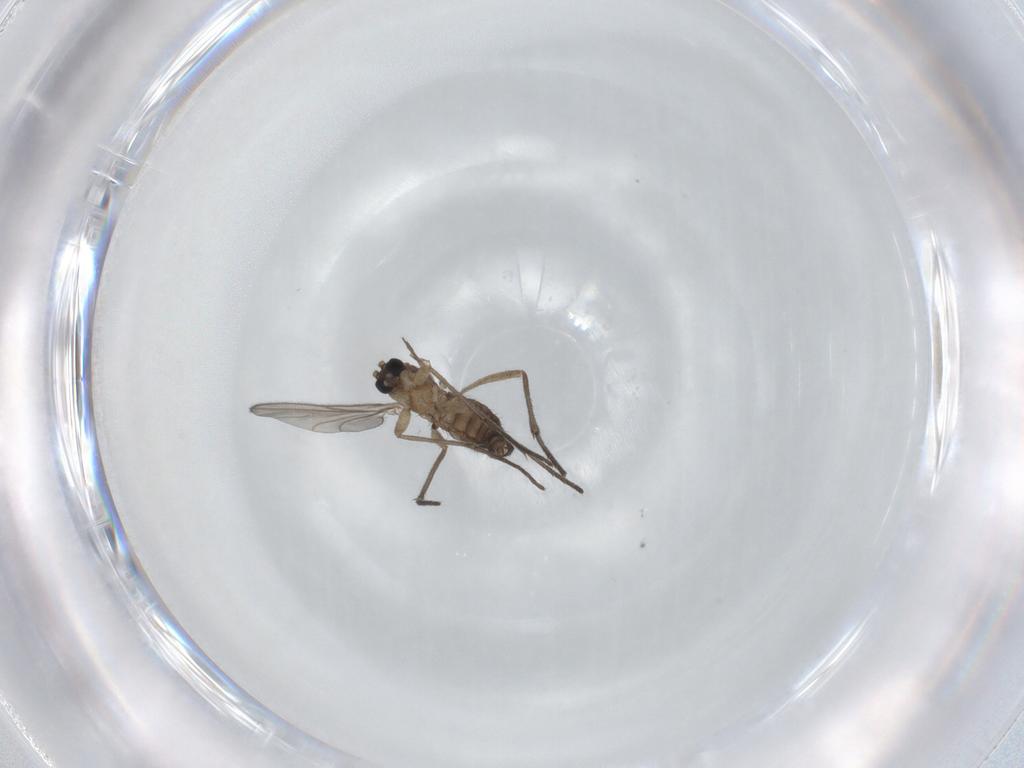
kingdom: Animalia
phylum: Arthropoda
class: Insecta
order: Diptera
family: Sciaridae
